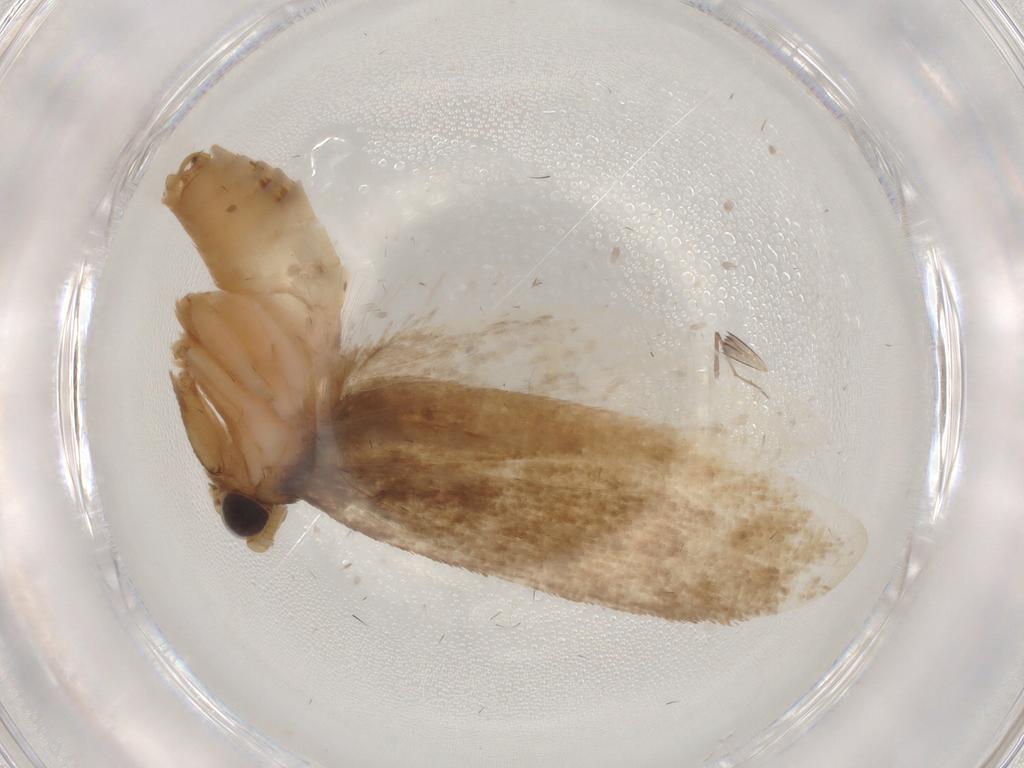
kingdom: Animalia
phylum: Arthropoda
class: Insecta
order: Lepidoptera
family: Tineidae
